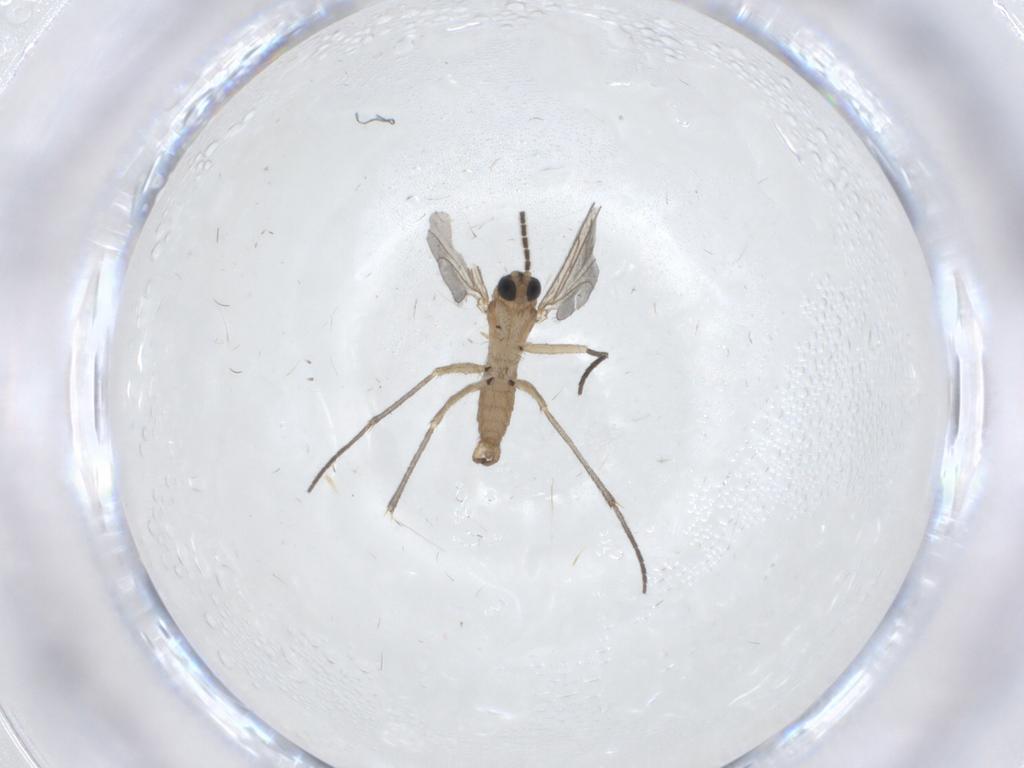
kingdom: Animalia
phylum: Arthropoda
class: Insecta
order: Diptera
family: Sciaridae
